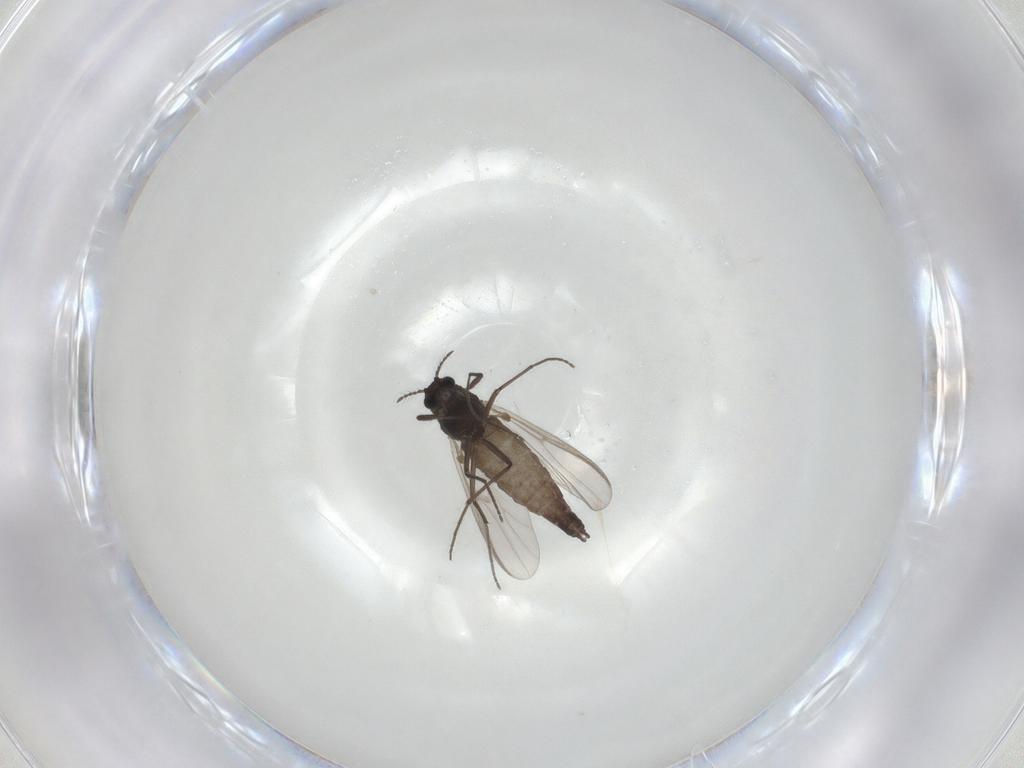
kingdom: Animalia
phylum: Arthropoda
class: Insecta
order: Diptera
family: Chironomidae
